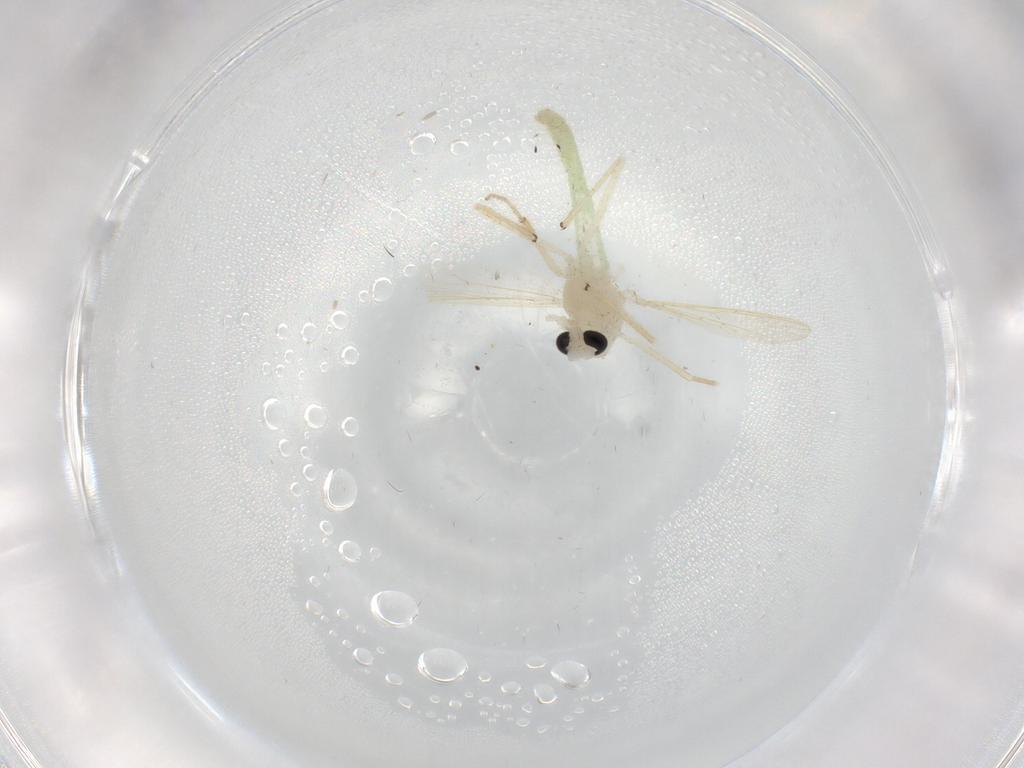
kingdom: Animalia
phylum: Arthropoda
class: Insecta
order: Diptera
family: Chironomidae
